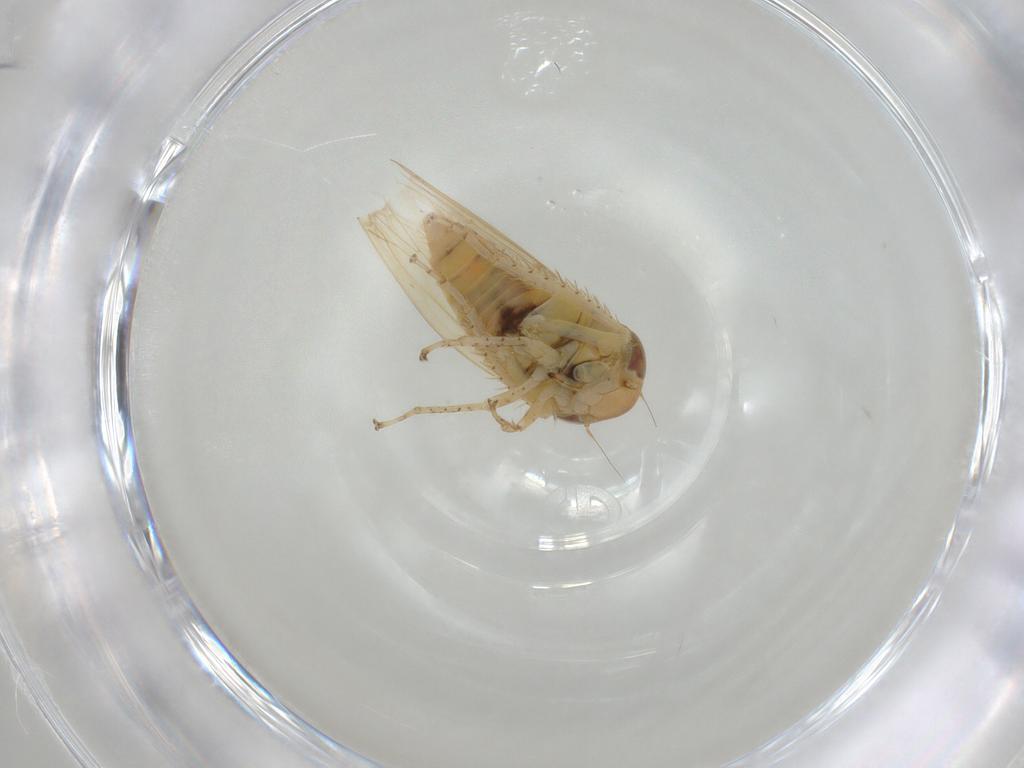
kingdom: Animalia
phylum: Arthropoda
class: Insecta
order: Hemiptera
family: Cicadellidae
